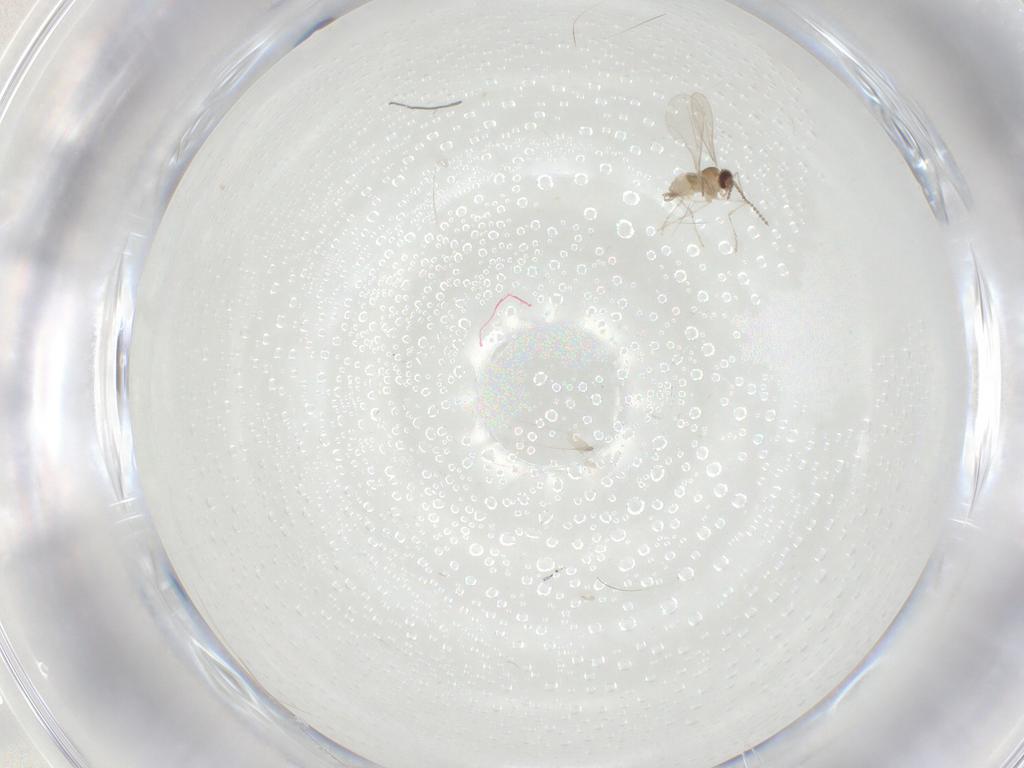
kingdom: Animalia
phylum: Arthropoda
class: Insecta
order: Diptera
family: Cecidomyiidae
